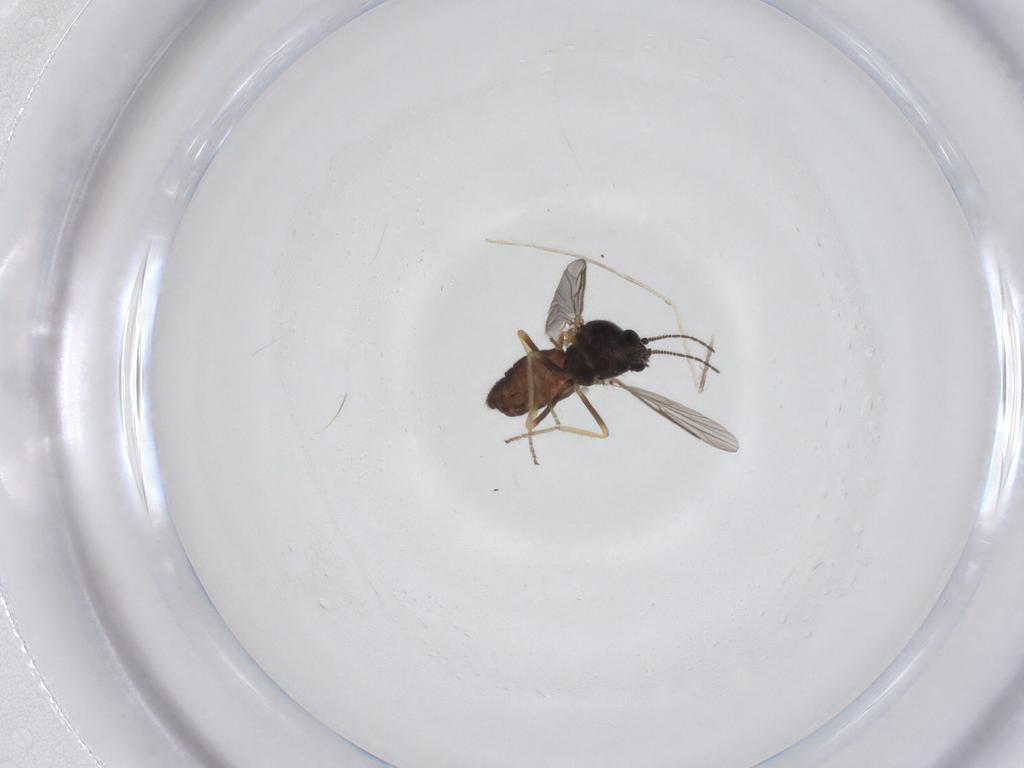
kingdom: Animalia
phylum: Arthropoda
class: Insecta
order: Diptera
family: Ceratopogonidae
